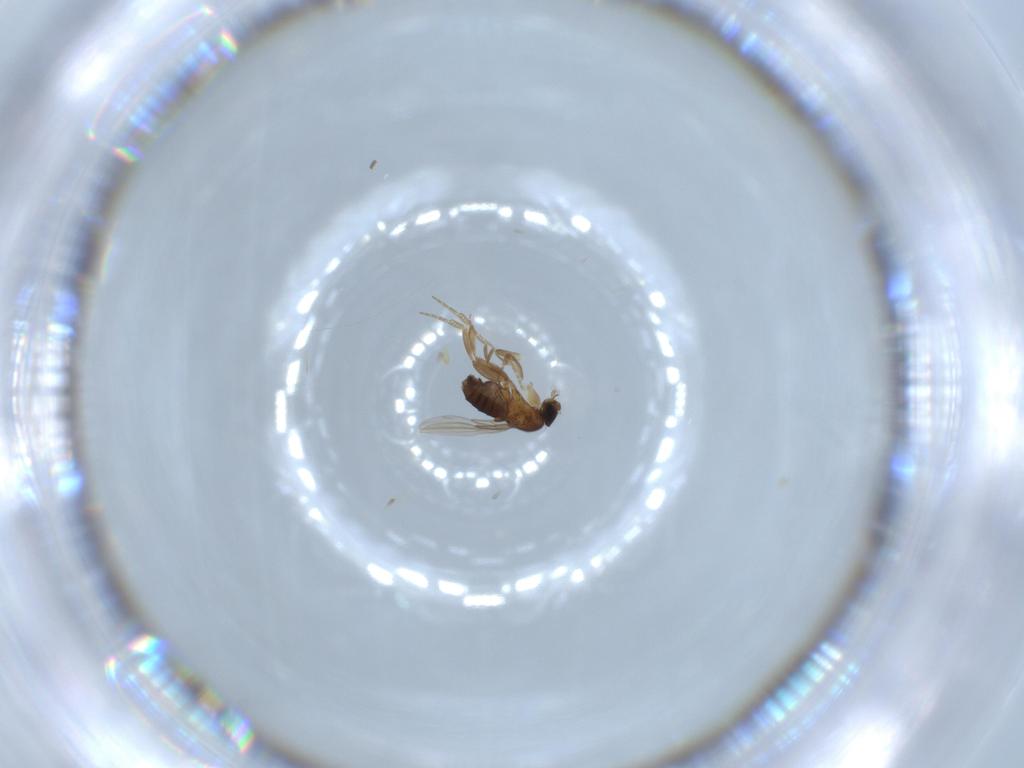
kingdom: Animalia
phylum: Arthropoda
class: Insecta
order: Diptera
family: Phoridae
